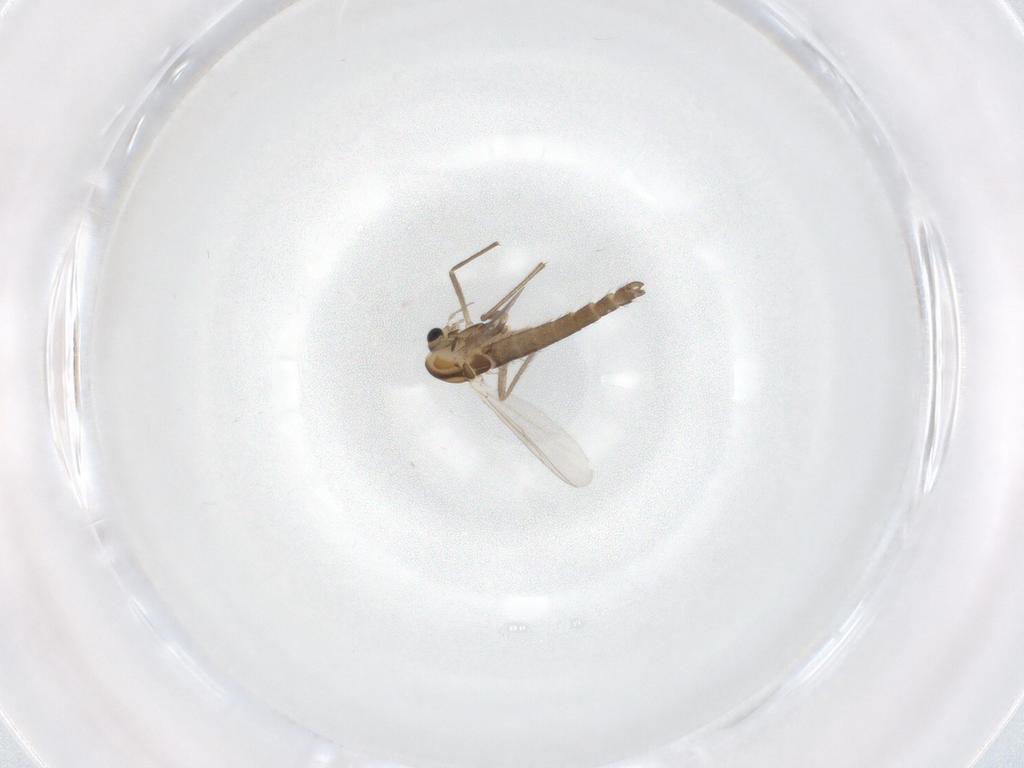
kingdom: Animalia
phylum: Arthropoda
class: Insecta
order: Diptera
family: Chironomidae
